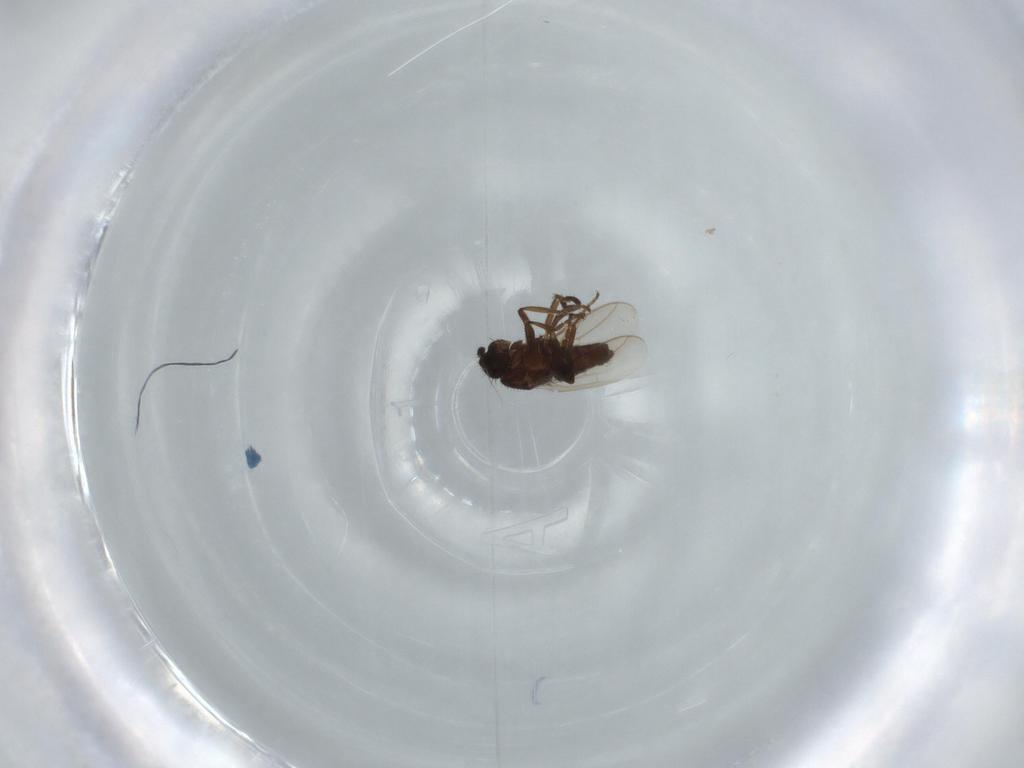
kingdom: Animalia
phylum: Arthropoda
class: Insecta
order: Diptera
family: Sphaeroceridae
